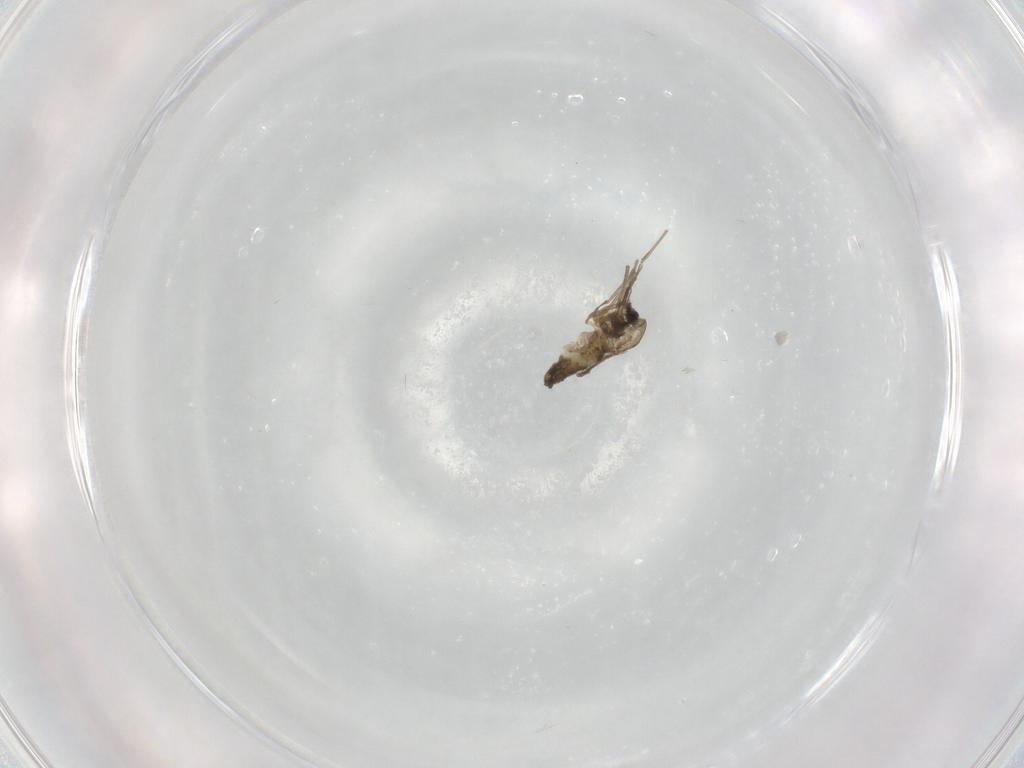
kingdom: Animalia
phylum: Arthropoda
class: Insecta
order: Diptera
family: Chironomidae
